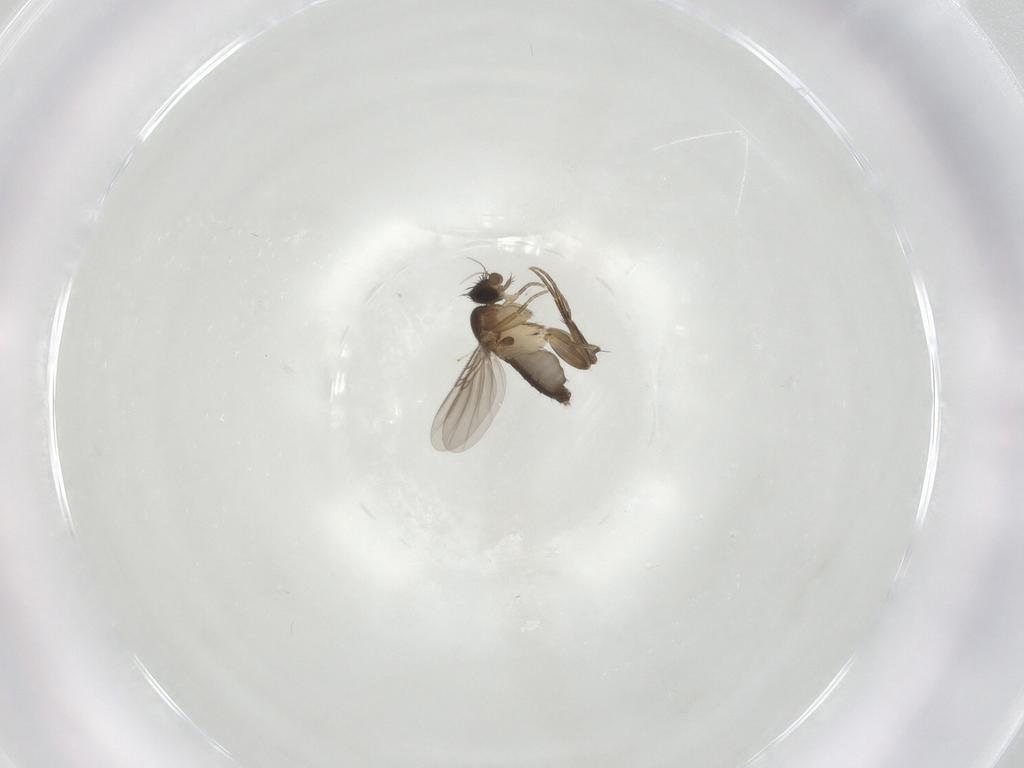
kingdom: Animalia
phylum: Arthropoda
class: Insecta
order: Diptera
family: Phoridae
